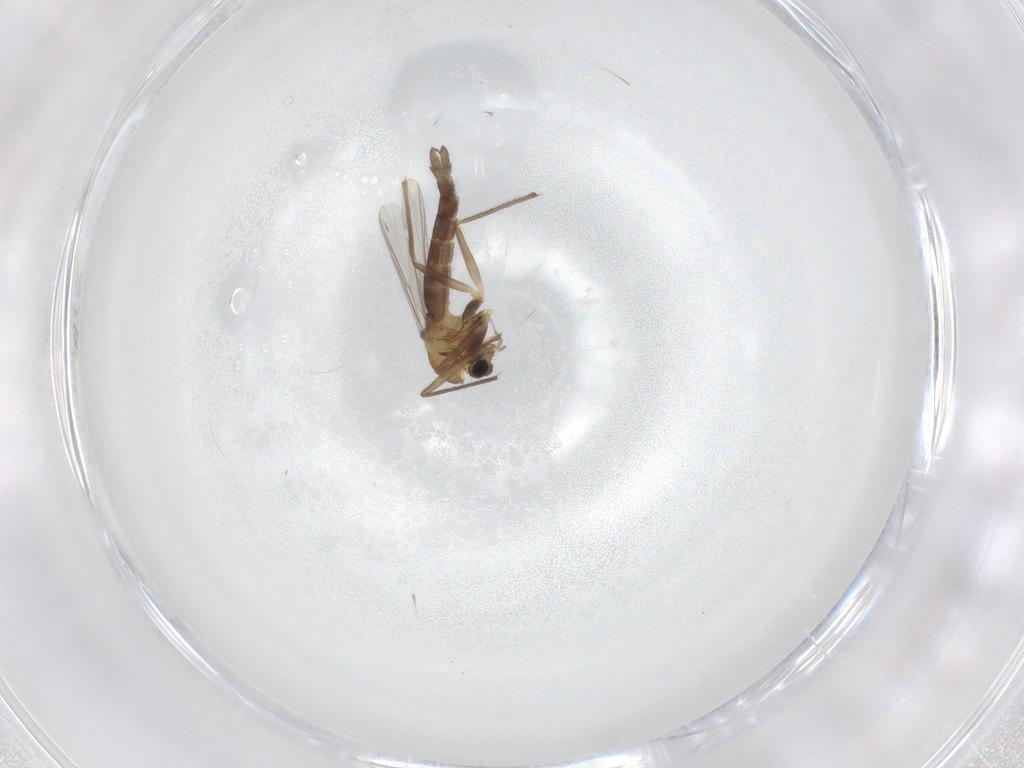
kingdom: Animalia
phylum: Arthropoda
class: Insecta
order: Diptera
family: Chironomidae
